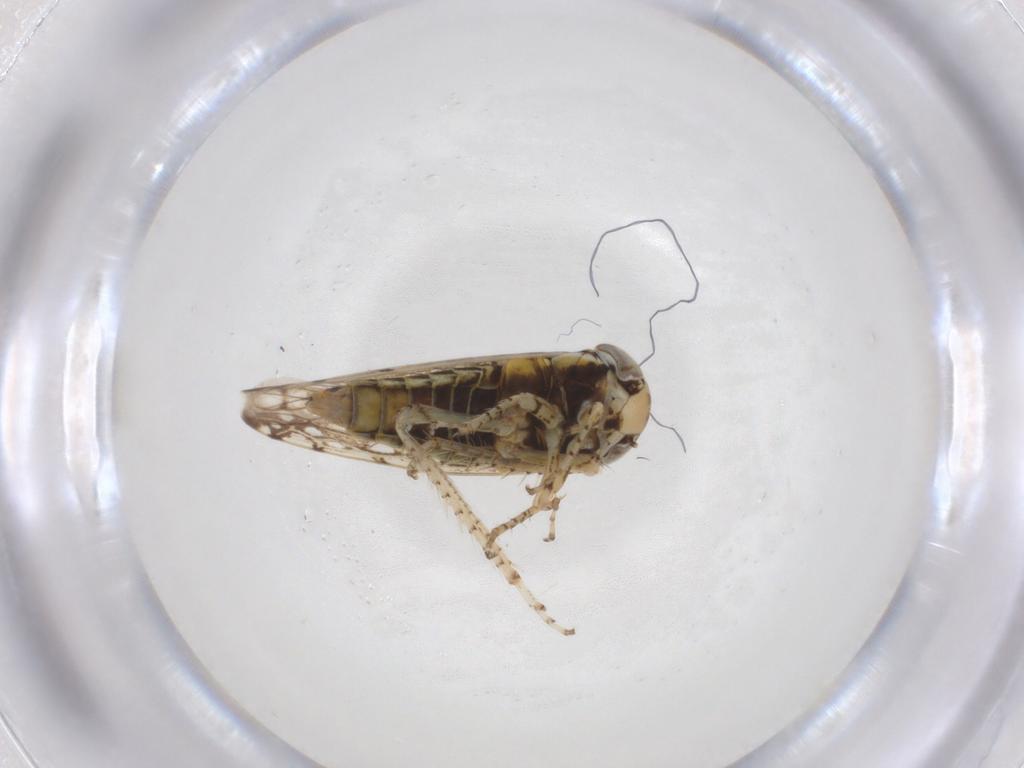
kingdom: Animalia
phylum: Arthropoda
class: Insecta
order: Hemiptera
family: Cicadellidae
